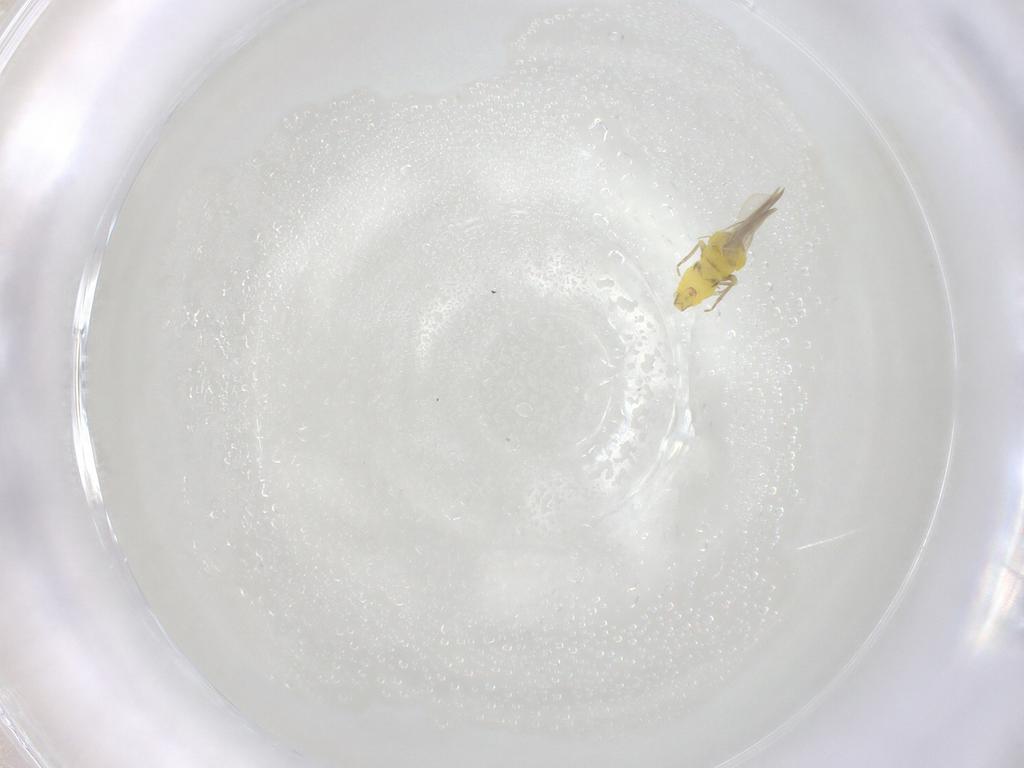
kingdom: Animalia
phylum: Arthropoda
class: Insecta
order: Hemiptera
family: Aleyrodidae
